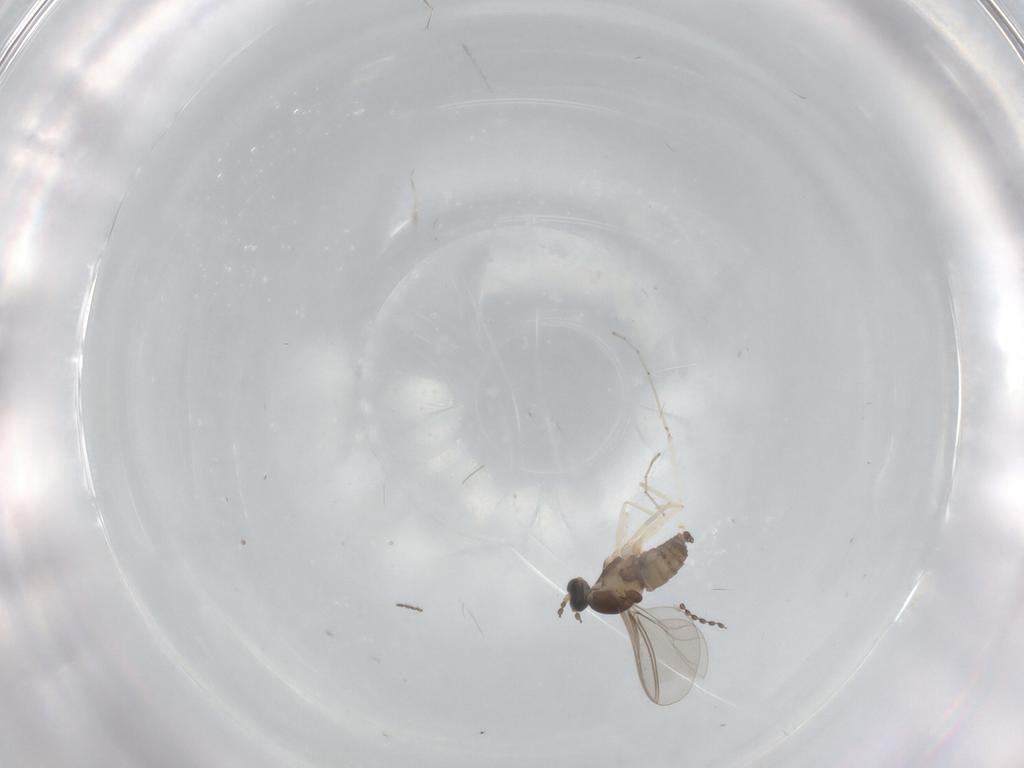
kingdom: Animalia
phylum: Arthropoda
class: Insecta
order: Diptera
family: Chironomidae
